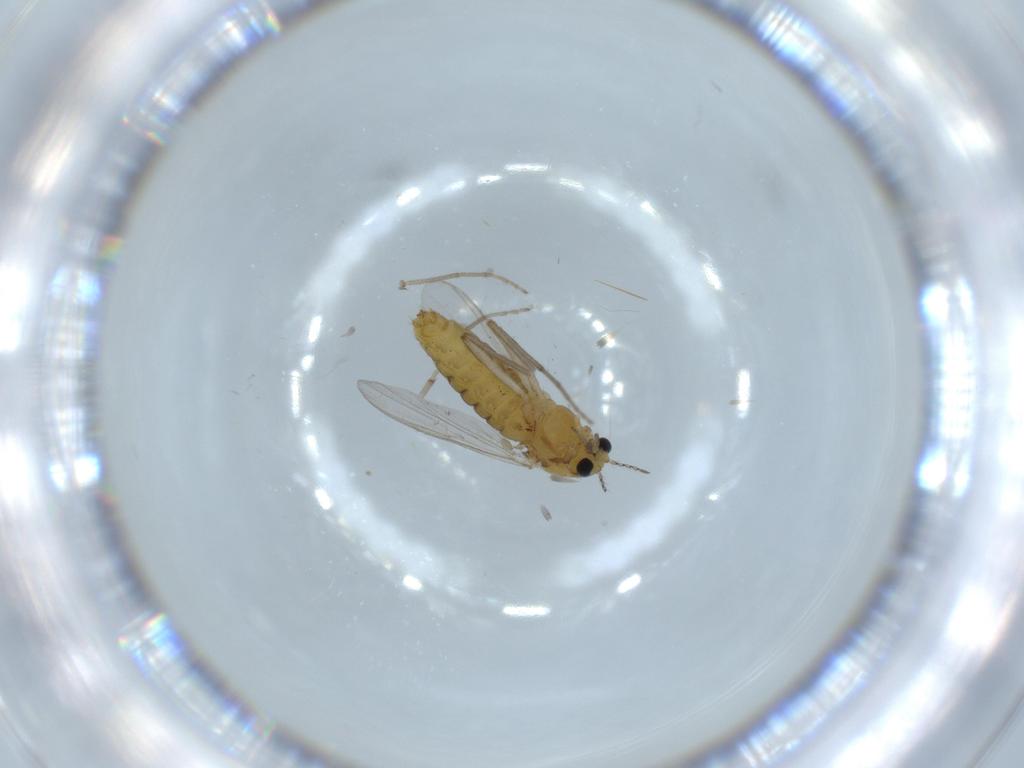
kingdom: Animalia
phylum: Arthropoda
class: Insecta
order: Diptera
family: Chironomidae
